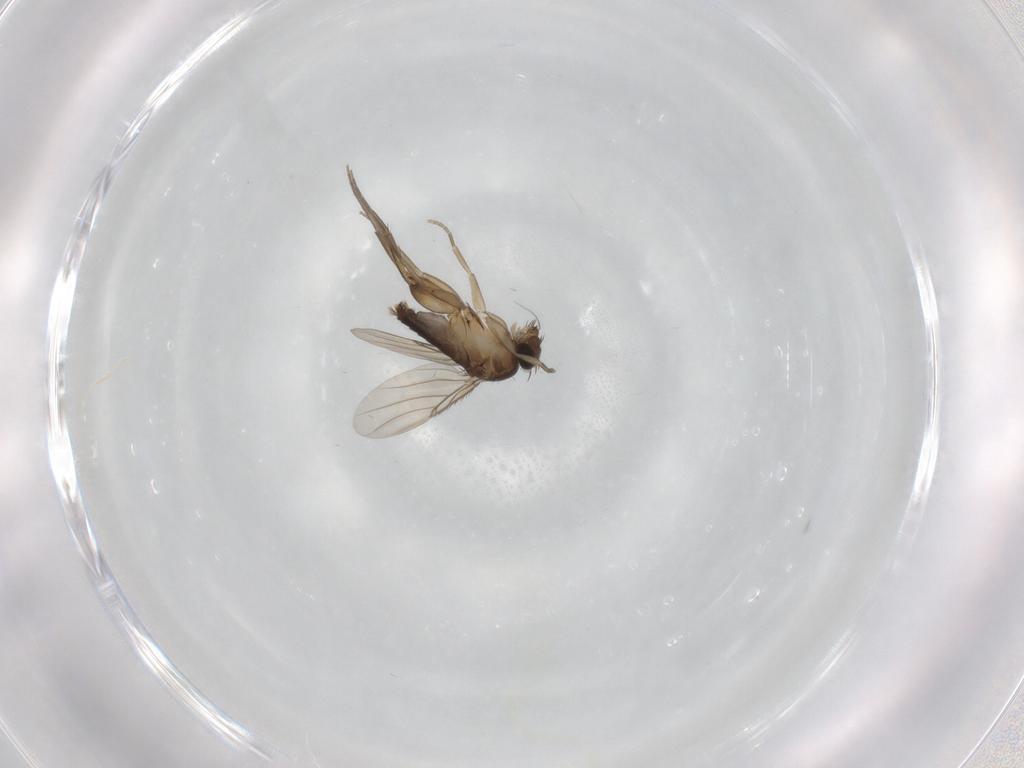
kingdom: Animalia
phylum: Arthropoda
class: Insecta
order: Diptera
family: Phoridae
